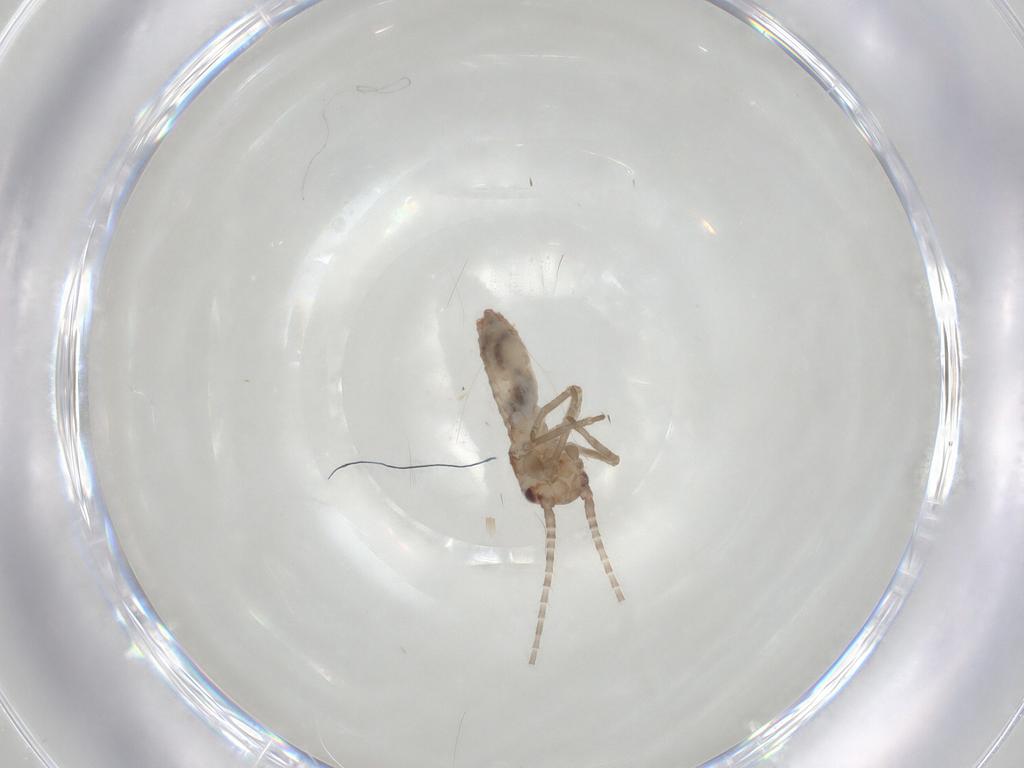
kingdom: Animalia
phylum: Arthropoda
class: Insecta
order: Orthoptera
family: Mogoplistidae
